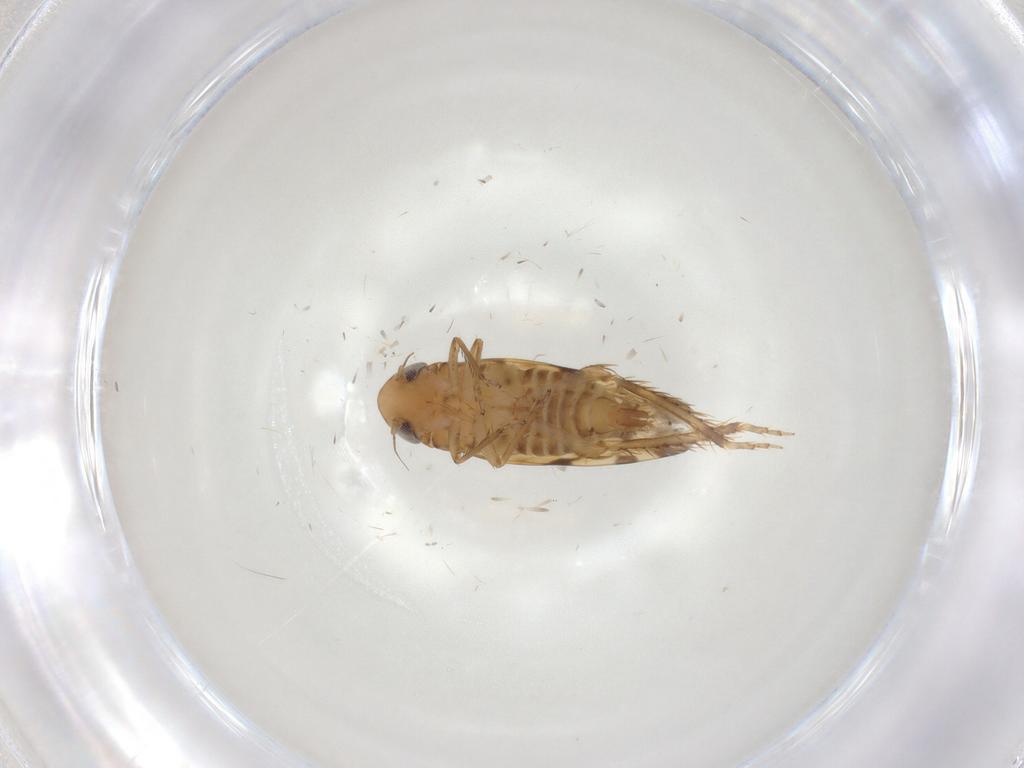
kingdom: Animalia
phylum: Arthropoda
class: Insecta
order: Hemiptera
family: Cicadellidae
